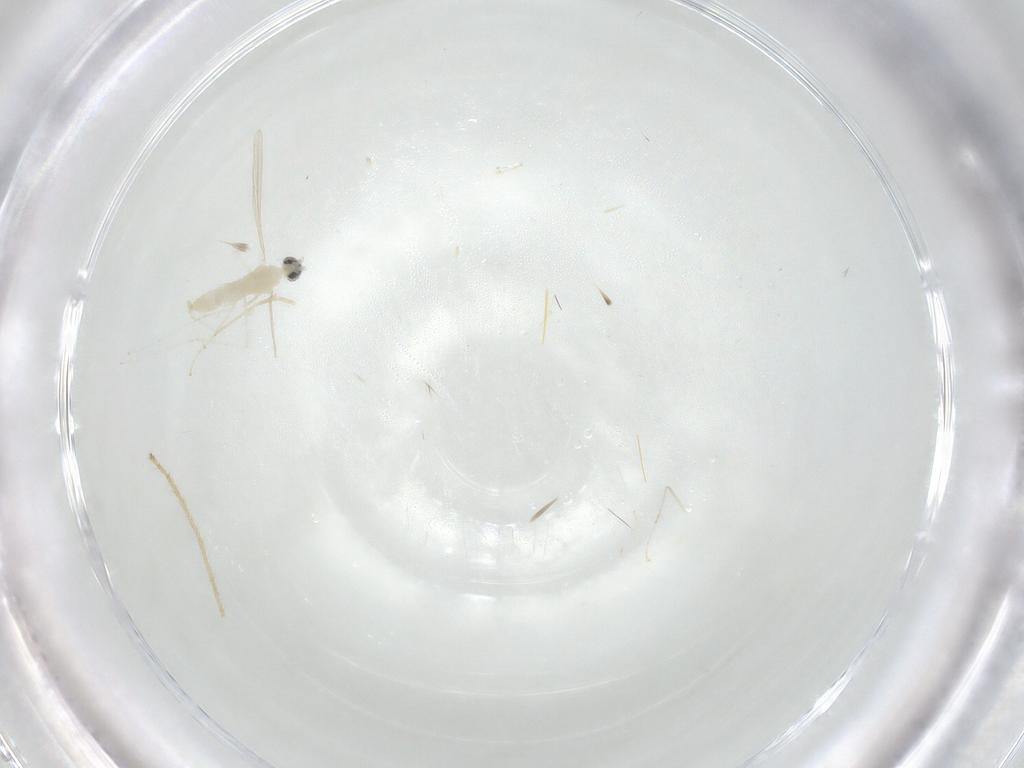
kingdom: Animalia
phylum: Arthropoda
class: Insecta
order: Diptera
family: Cecidomyiidae
